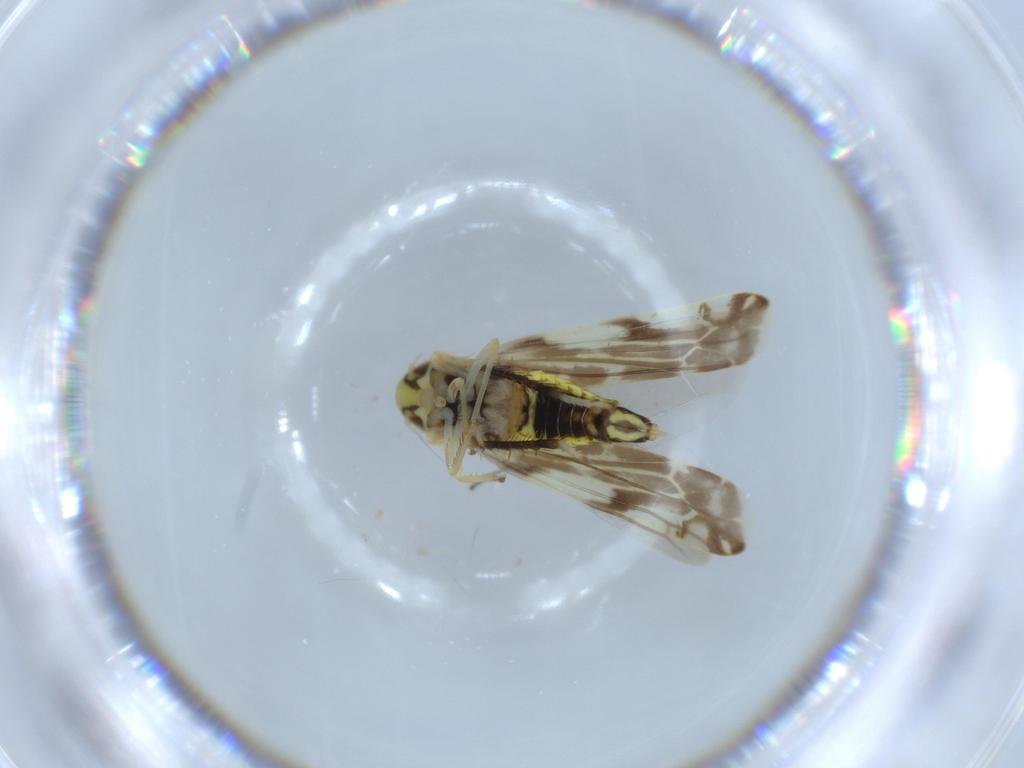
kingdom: Animalia
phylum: Arthropoda
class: Insecta
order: Hemiptera
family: Cicadellidae
